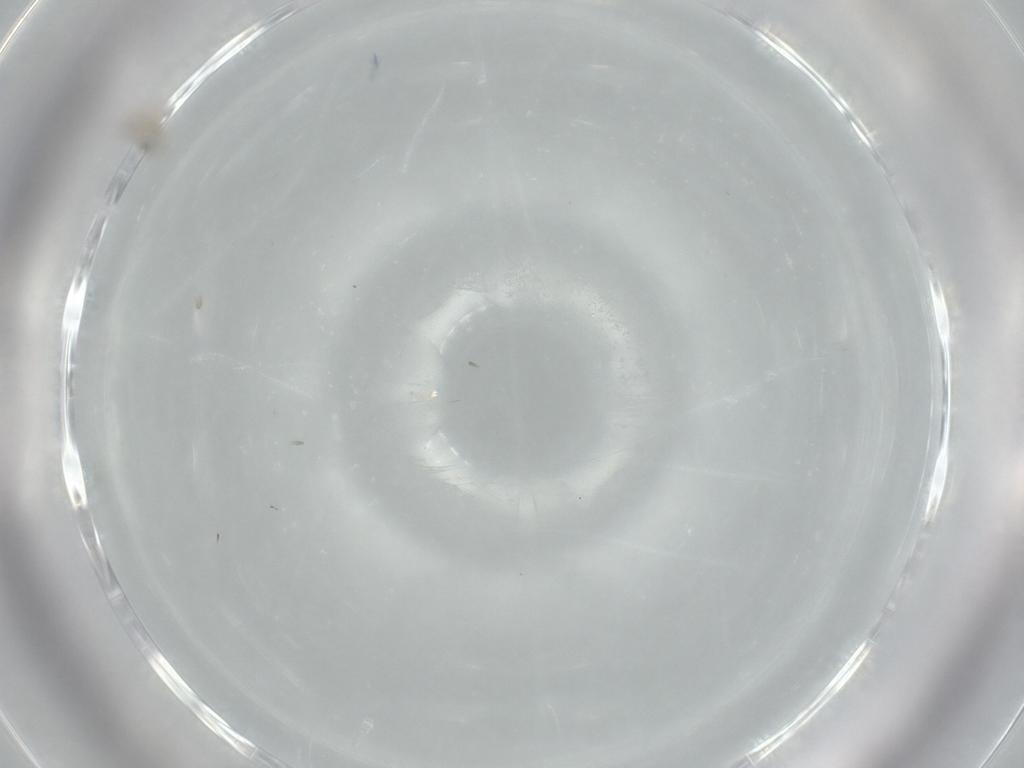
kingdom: Animalia
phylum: Arthropoda
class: Insecta
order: Hymenoptera
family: Mymaridae
